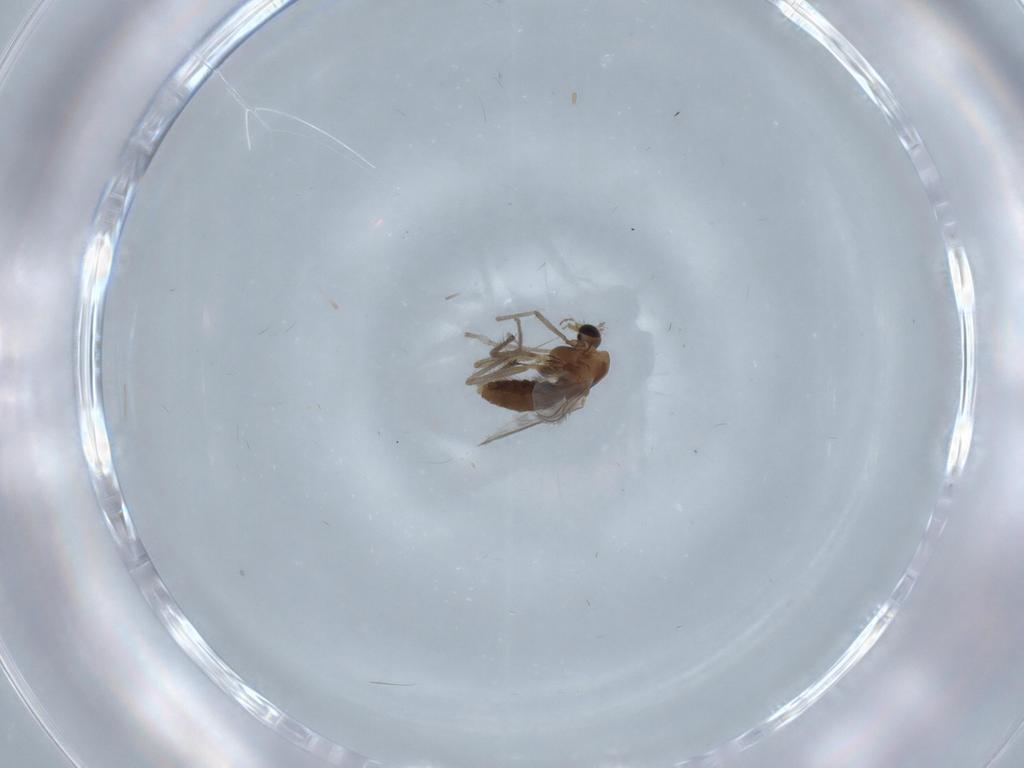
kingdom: Animalia
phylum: Arthropoda
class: Insecta
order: Diptera
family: Chironomidae
